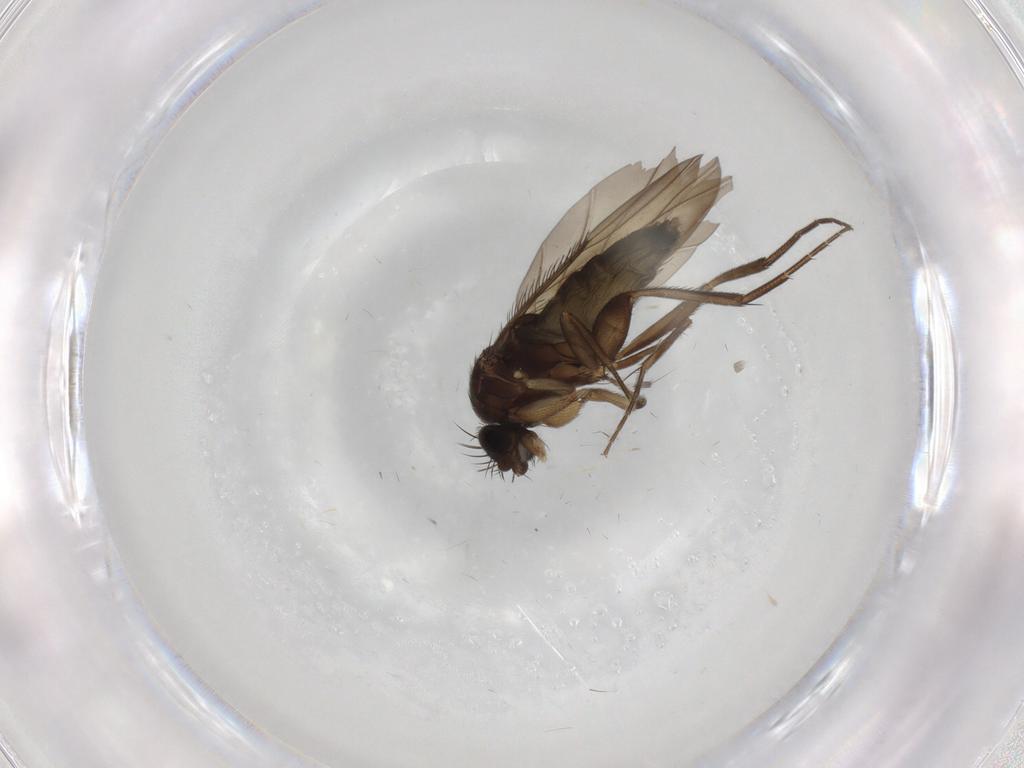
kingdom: Animalia
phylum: Arthropoda
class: Insecta
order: Diptera
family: Phoridae
